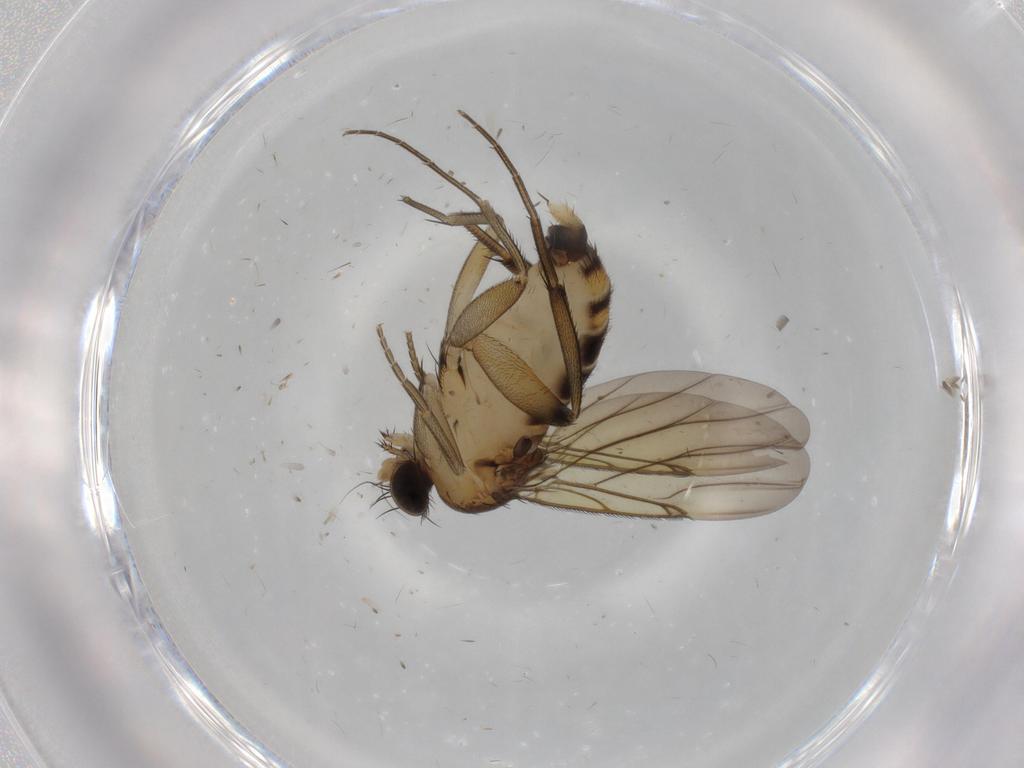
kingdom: Animalia
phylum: Arthropoda
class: Insecta
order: Diptera
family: Phoridae
